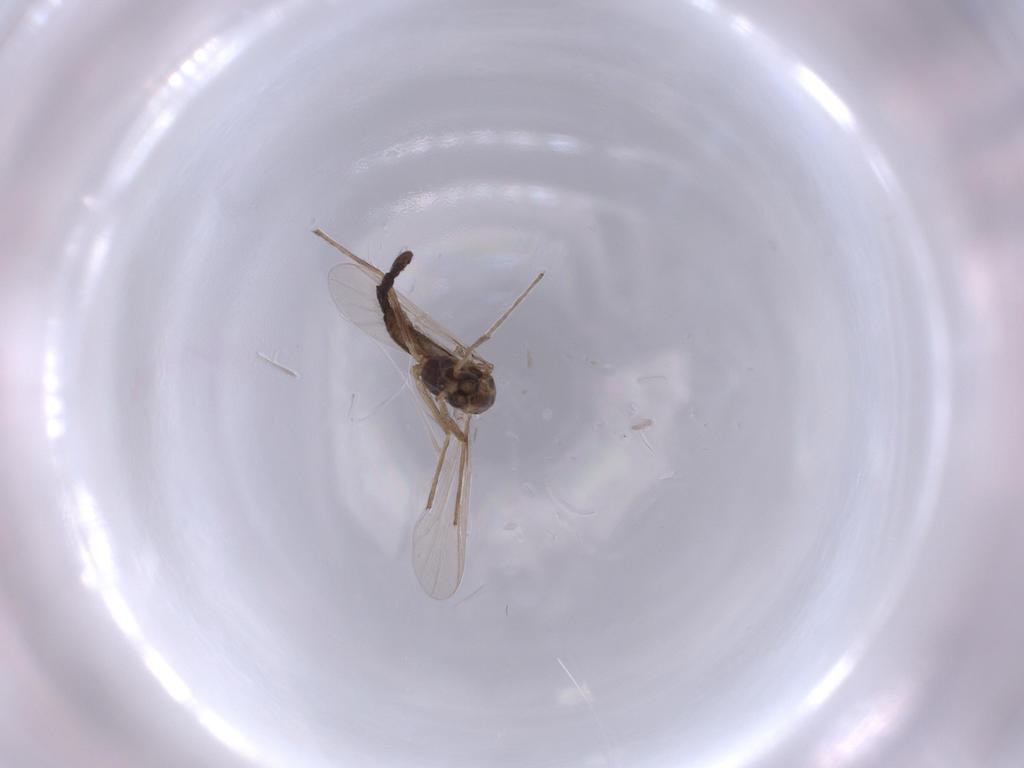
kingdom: Animalia
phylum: Arthropoda
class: Insecta
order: Diptera
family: Chironomidae
